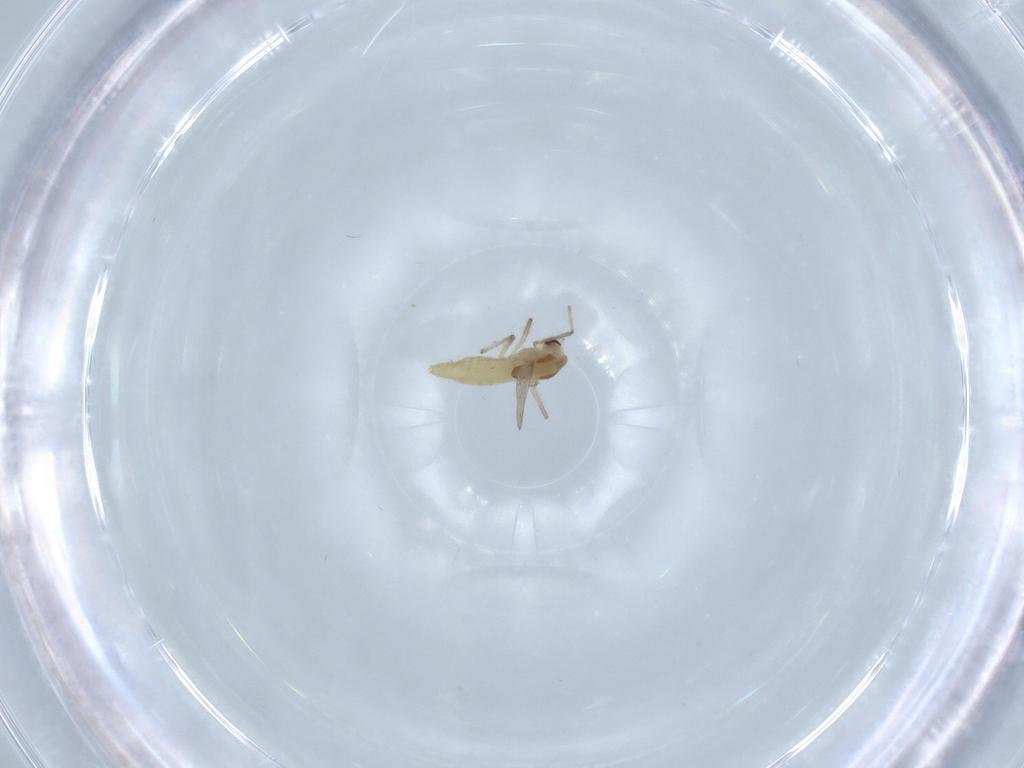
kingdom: Animalia
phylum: Arthropoda
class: Insecta
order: Diptera
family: Chironomidae
